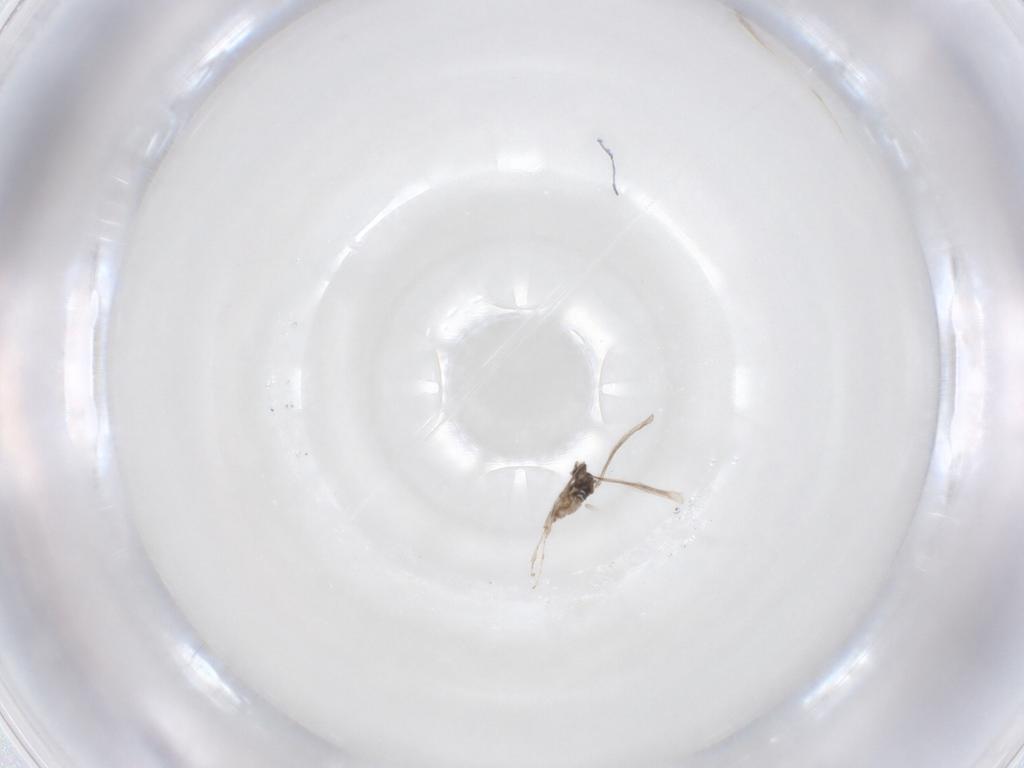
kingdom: Animalia
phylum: Arthropoda
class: Insecta
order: Diptera
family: Cecidomyiidae
